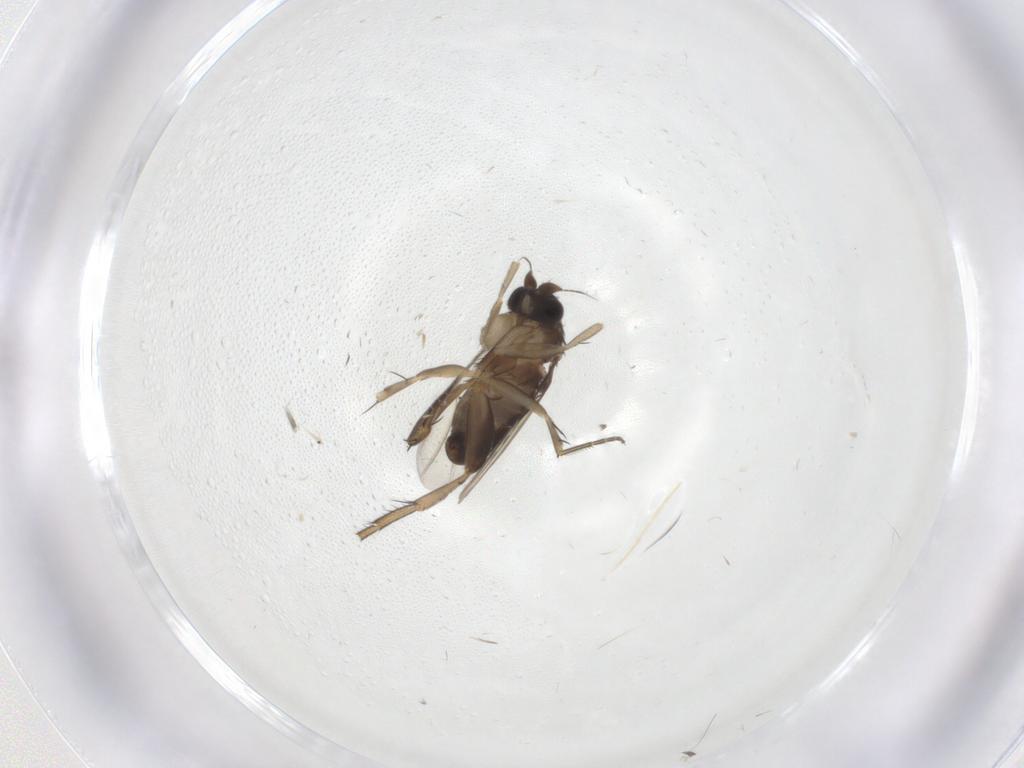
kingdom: Animalia
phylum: Arthropoda
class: Insecta
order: Diptera
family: Phoridae
